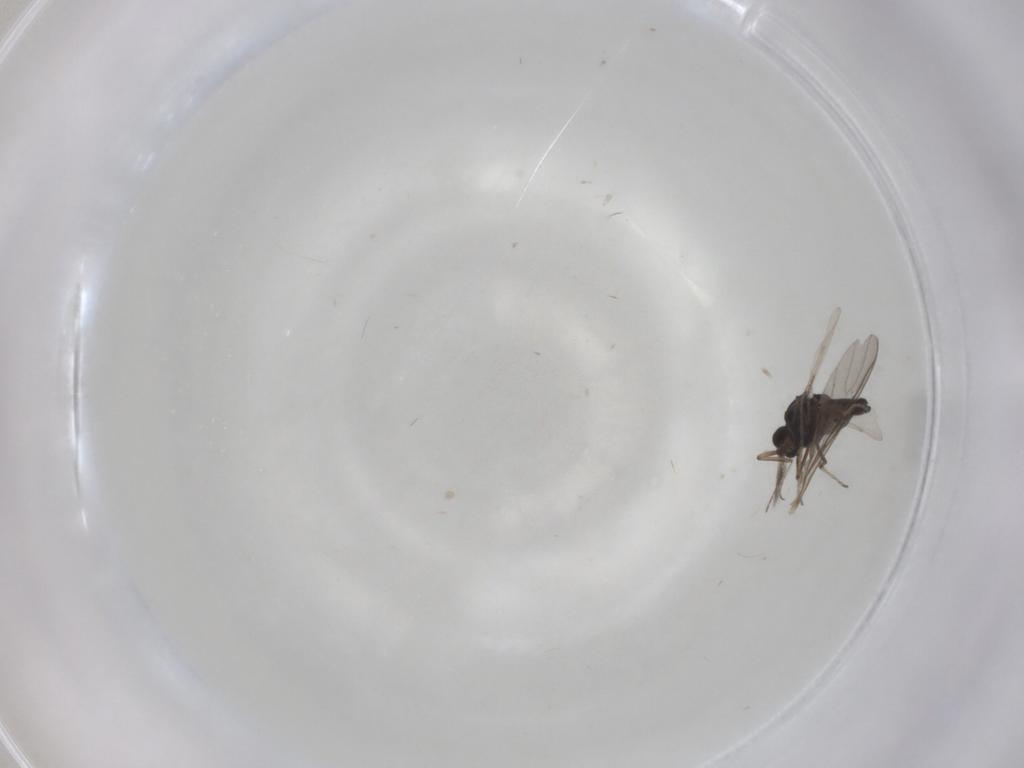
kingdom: Animalia
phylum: Arthropoda
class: Insecta
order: Diptera
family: Ceratopogonidae
